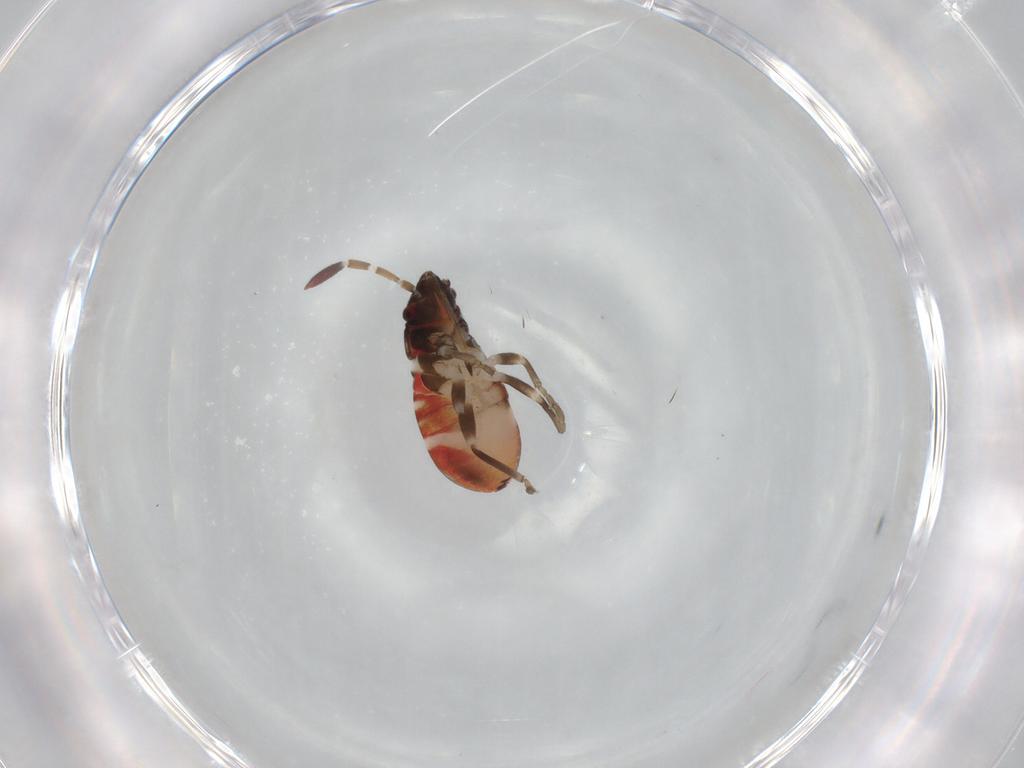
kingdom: Animalia
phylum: Arthropoda
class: Insecta
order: Hemiptera
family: Rhyparochromidae
